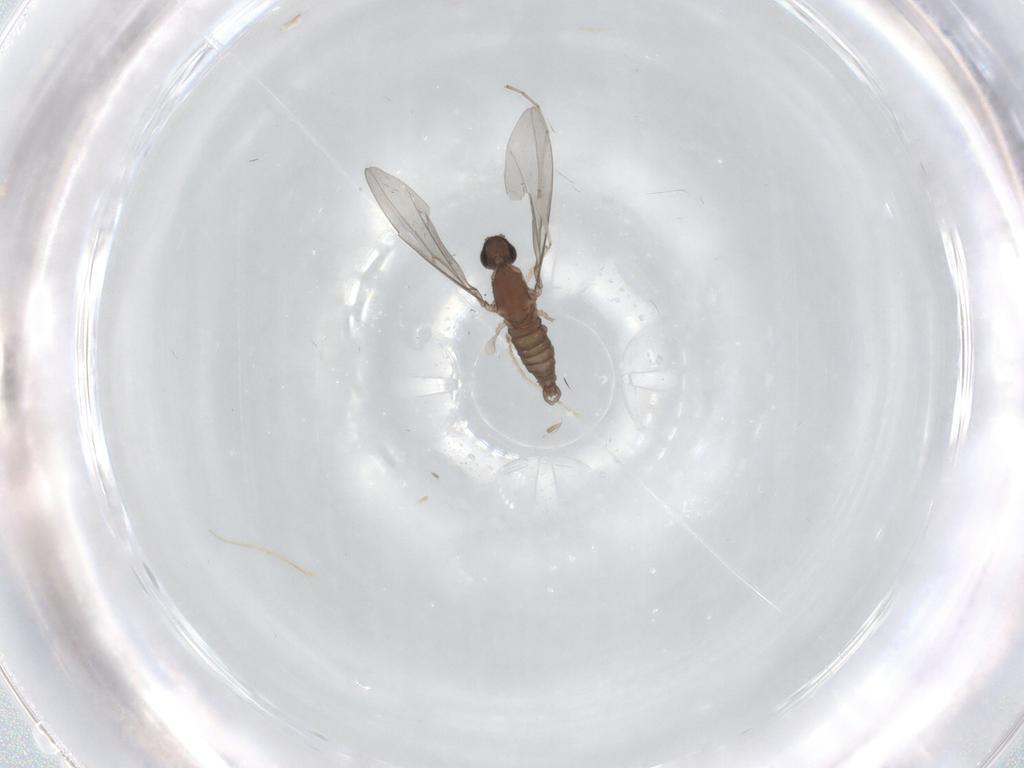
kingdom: Animalia
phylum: Arthropoda
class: Insecta
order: Diptera
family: Cecidomyiidae
